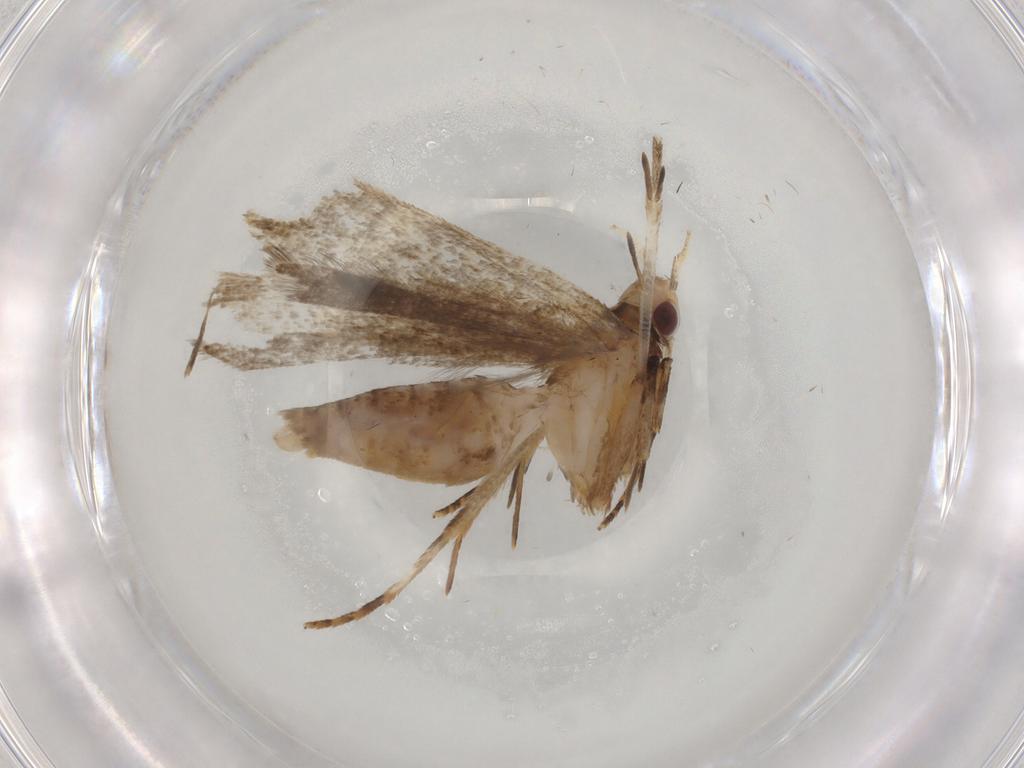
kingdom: Animalia
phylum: Arthropoda
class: Insecta
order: Lepidoptera
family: Gelechiidae
